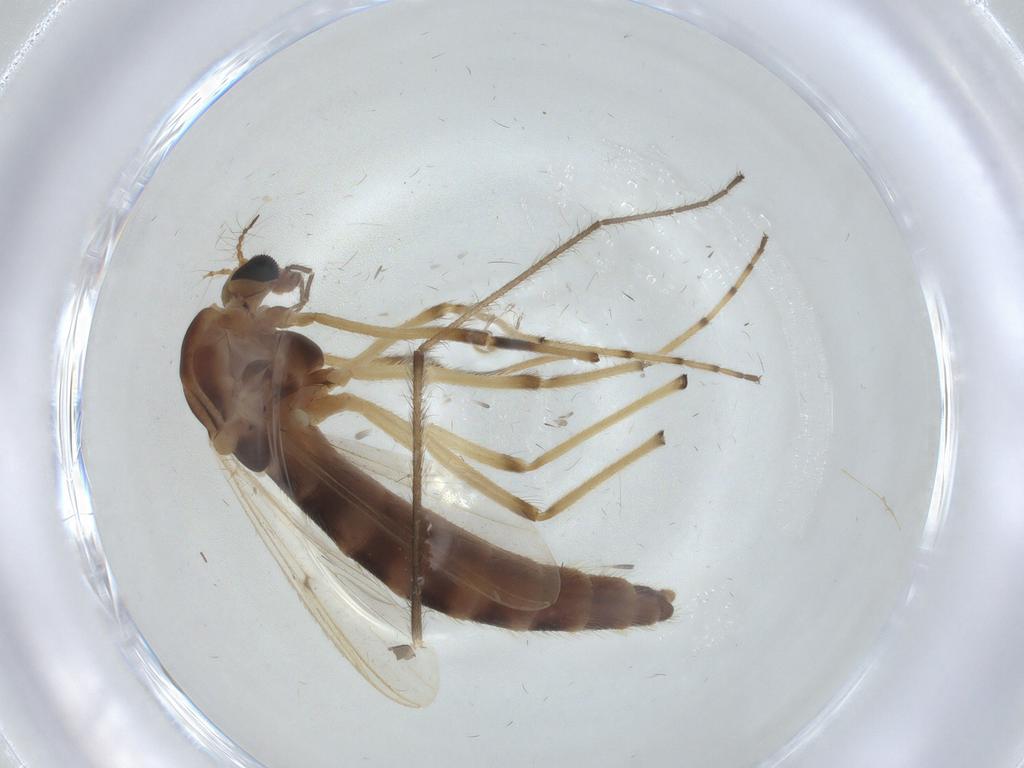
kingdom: Animalia
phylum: Arthropoda
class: Insecta
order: Diptera
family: Chironomidae
